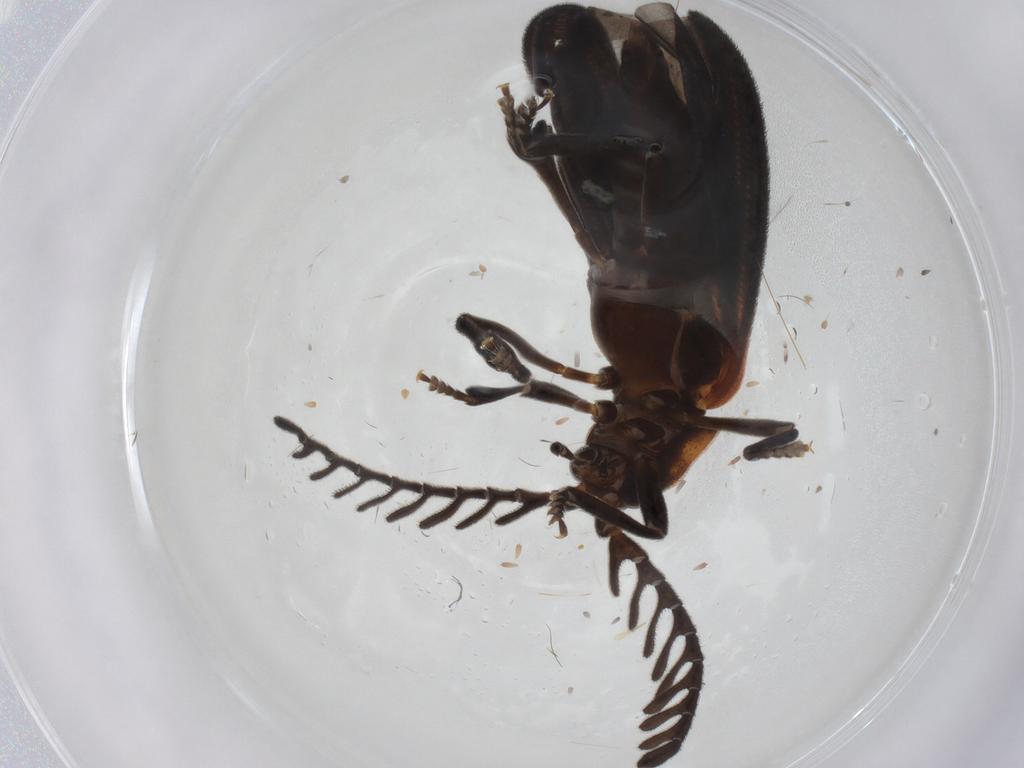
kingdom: Animalia
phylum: Arthropoda
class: Insecta
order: Coleoptera
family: Lycidae
